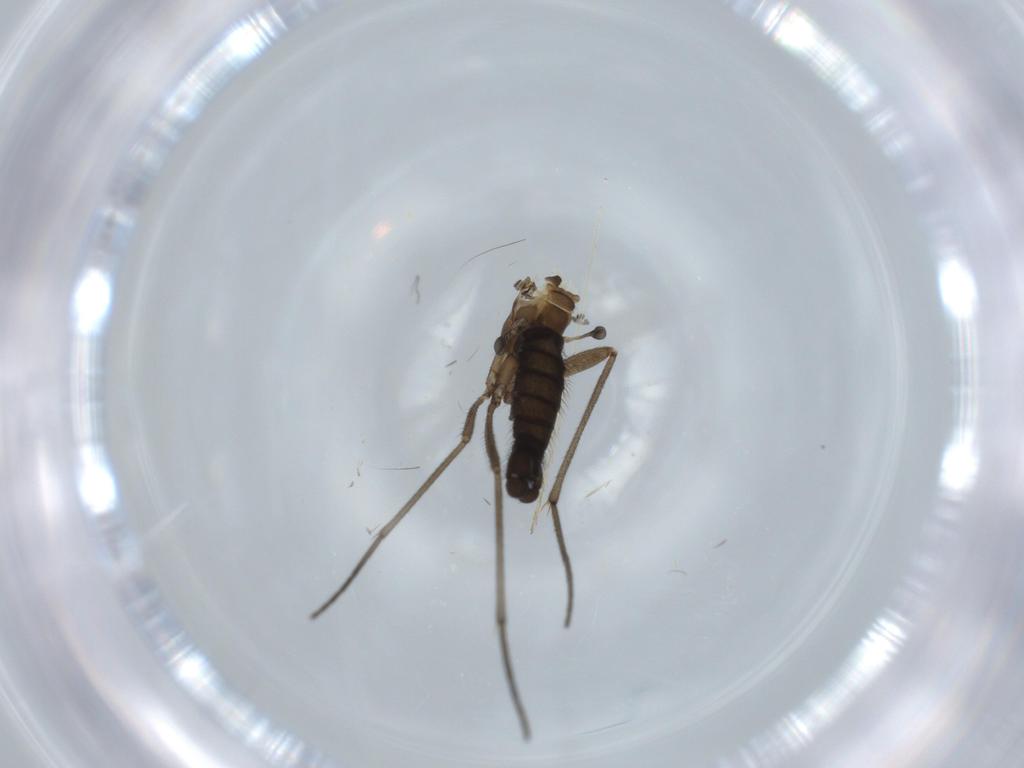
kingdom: Animalia
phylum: Arthropoda
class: Insecta
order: Diptera
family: Sciaridae
